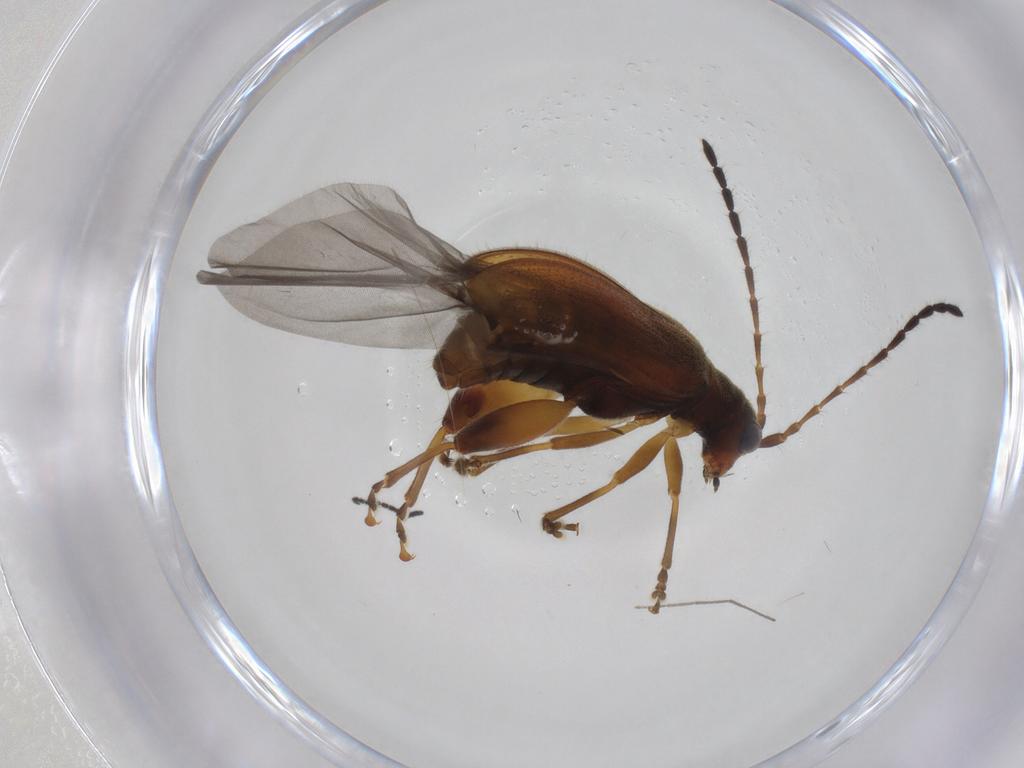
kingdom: Animalia
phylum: Arthropoda
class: Insecta
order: Coleoptera
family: Chrysomelidae
